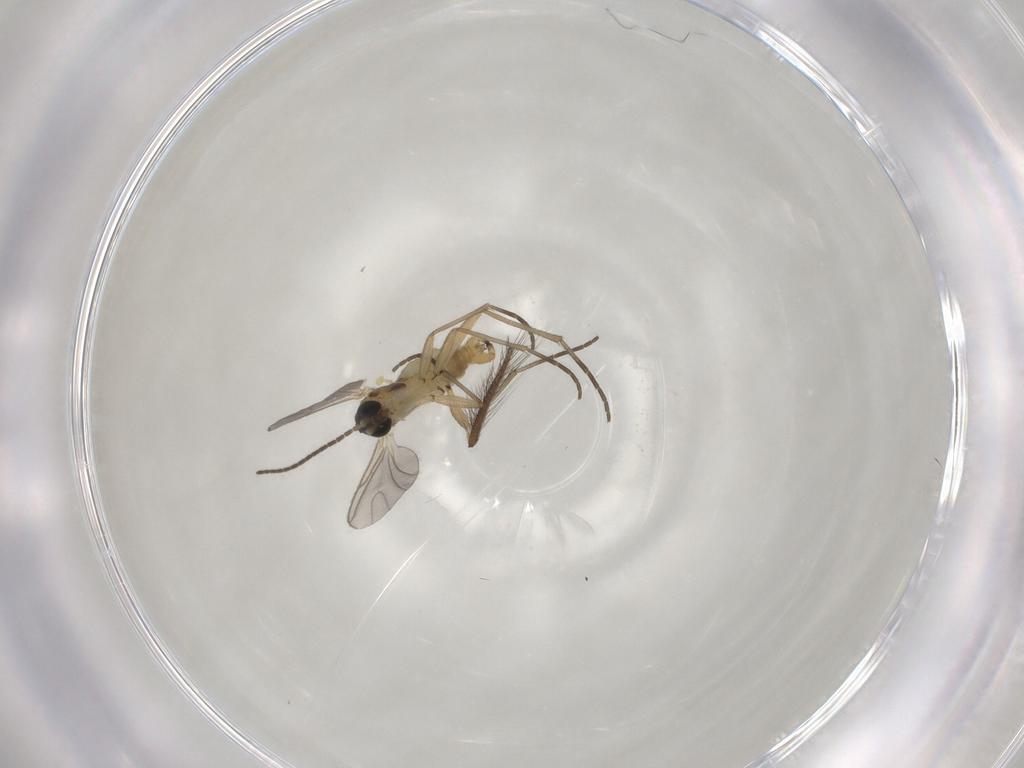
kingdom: Animalia
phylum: Arthropoda
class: Insecta
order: Diptera
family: Culicidae
